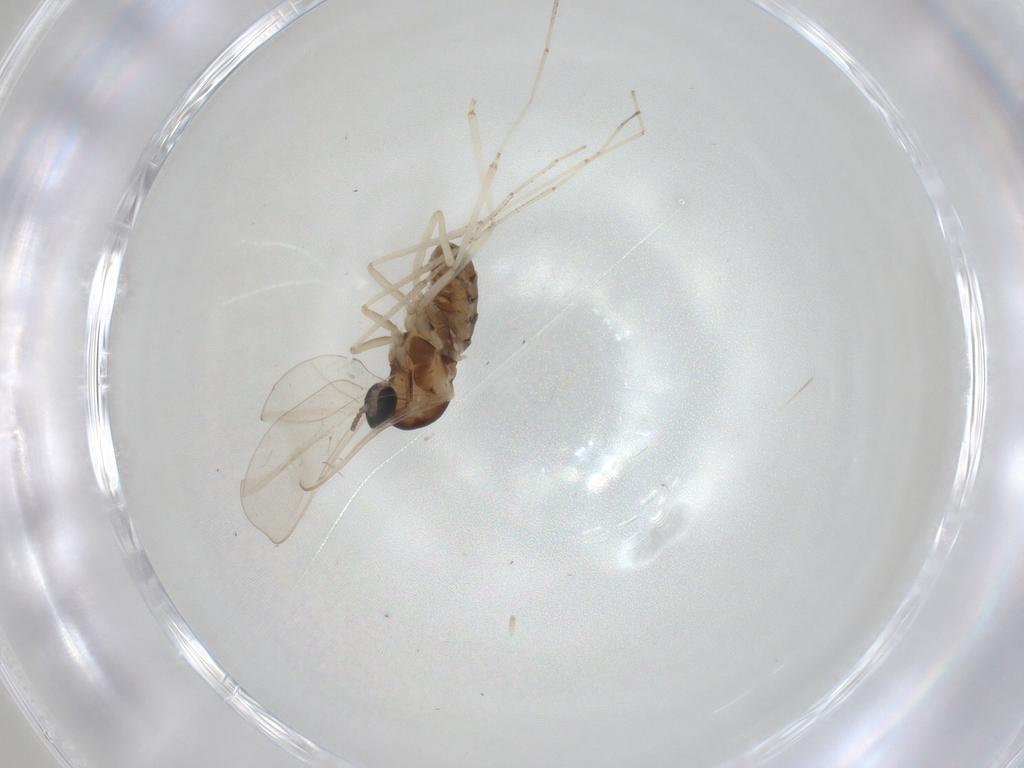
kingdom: Animalia
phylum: Arthropoda
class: Insecta
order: Diptera
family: Cecidomyiidae
